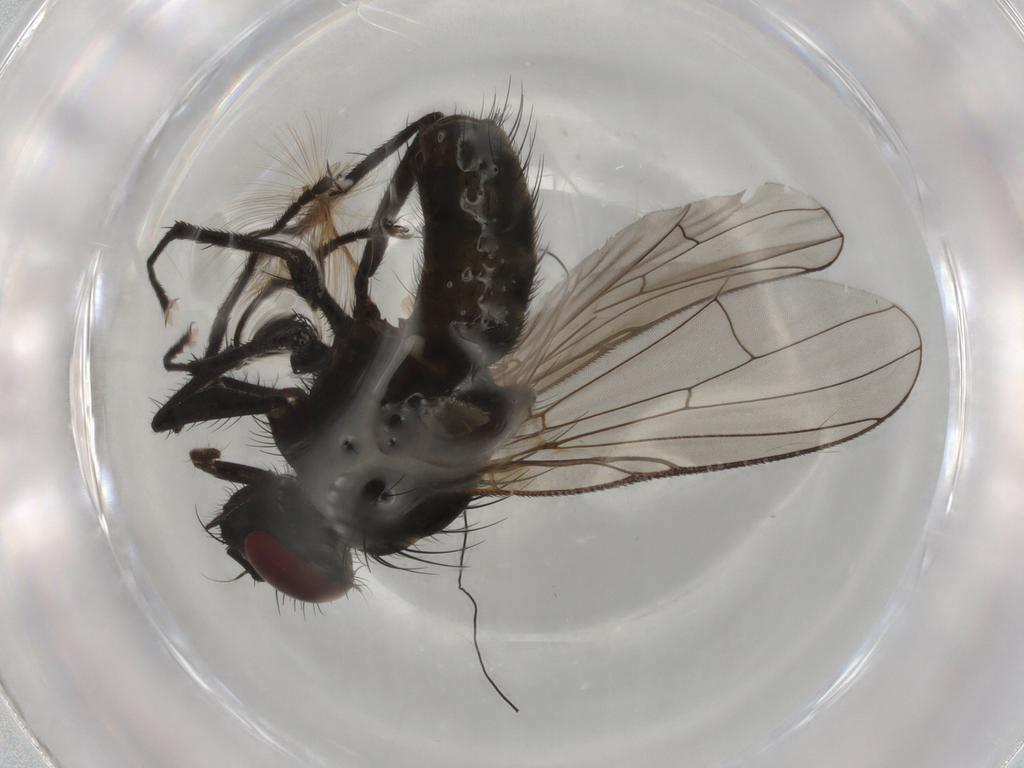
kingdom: Animalia
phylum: Arthropoda
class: Insecta
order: Diptera
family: Muscidae
